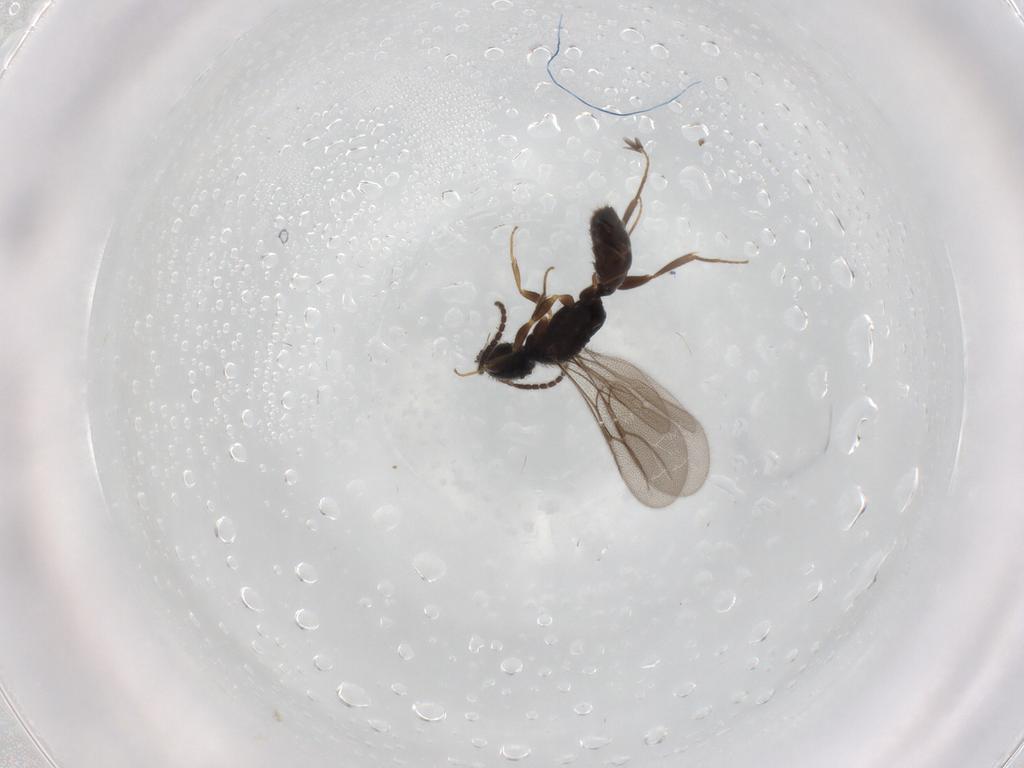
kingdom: Animalia
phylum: Arthropoda
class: Insecta
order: Hymenoptera
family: Bethylidae
